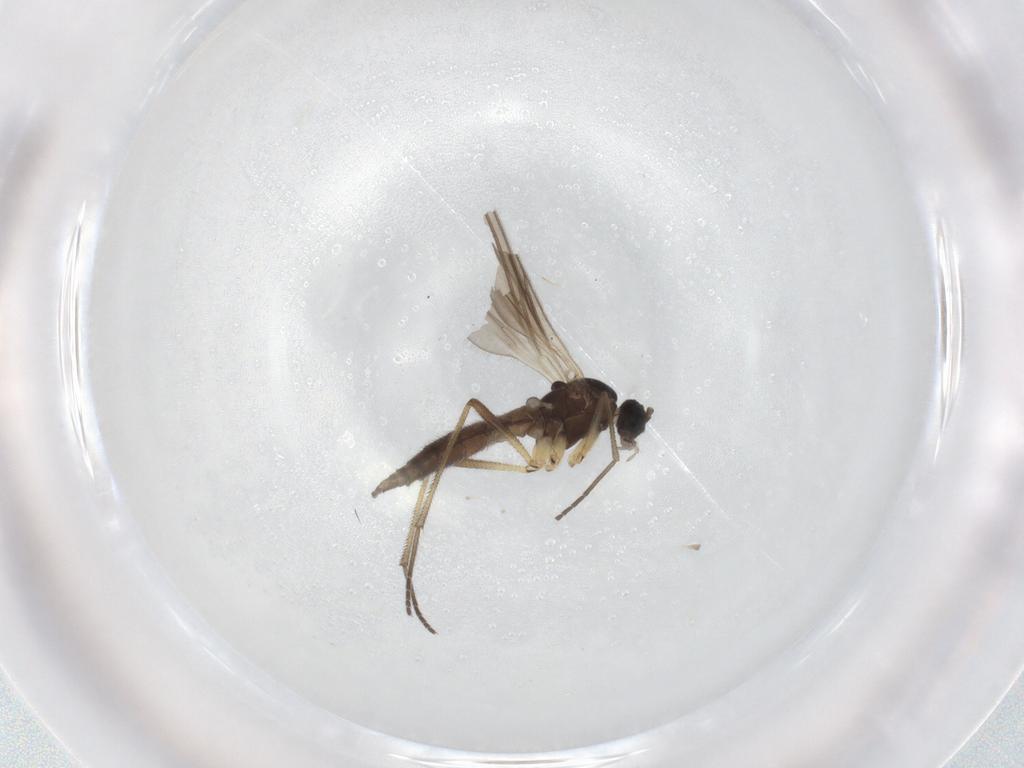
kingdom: Animalia
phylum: Arthropoda
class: Insecta
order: Diptera
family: Sciaridae
